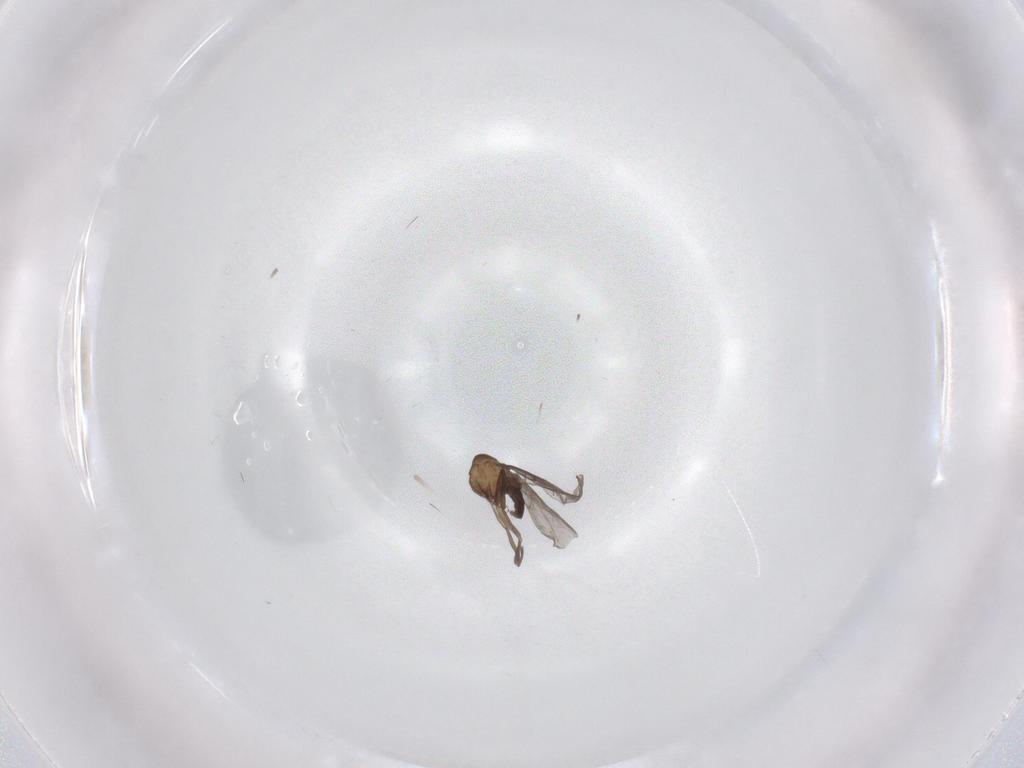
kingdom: Animalia
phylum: Arthropoda
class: Insecta
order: Diptera
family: Phoridae
